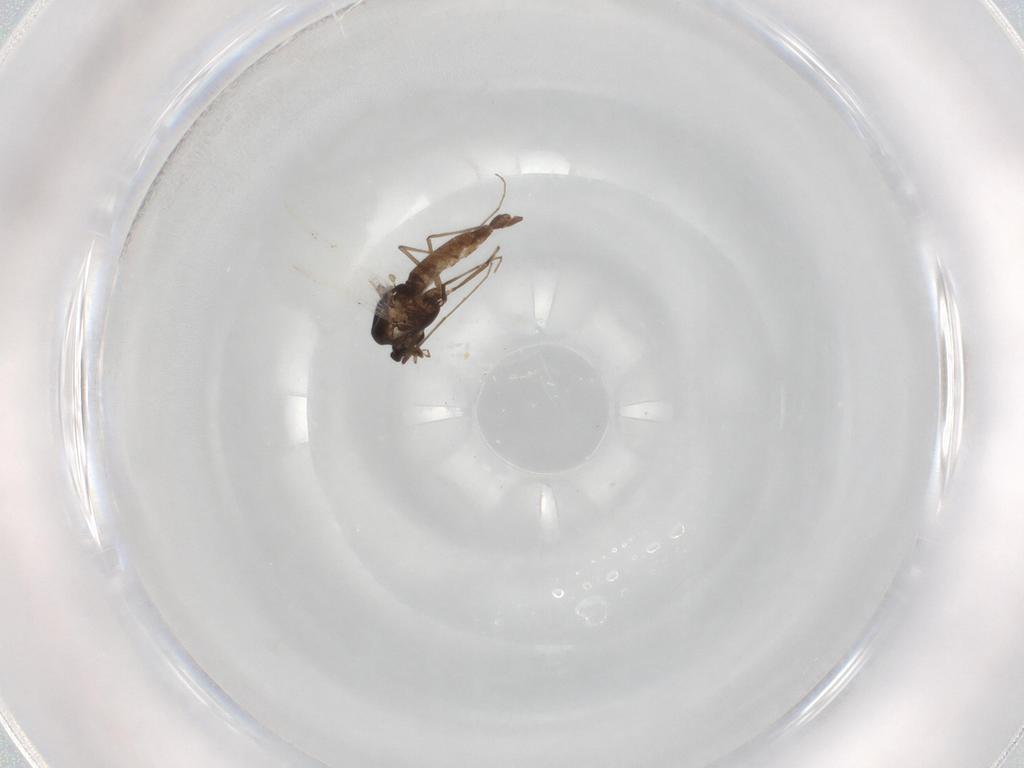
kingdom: Animalia
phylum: Arthropoda
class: Insecta
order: Diptera
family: Chironomidae
